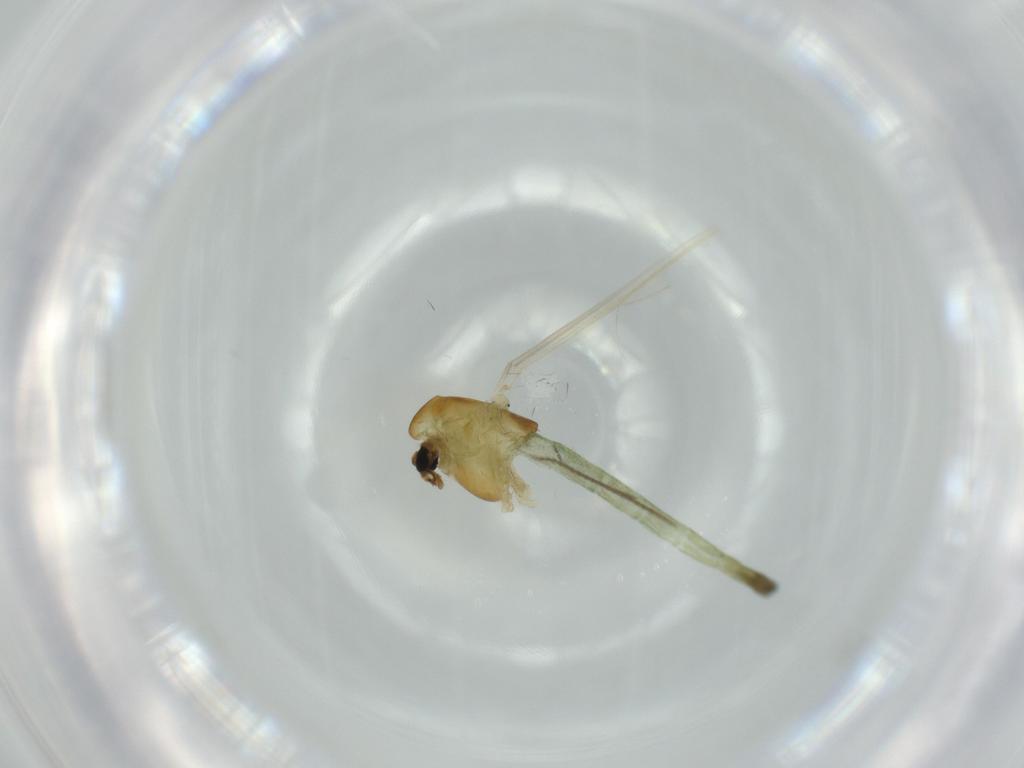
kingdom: Animalia
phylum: Arthropoda
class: Insecta
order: Diptera
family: Chironomidae
